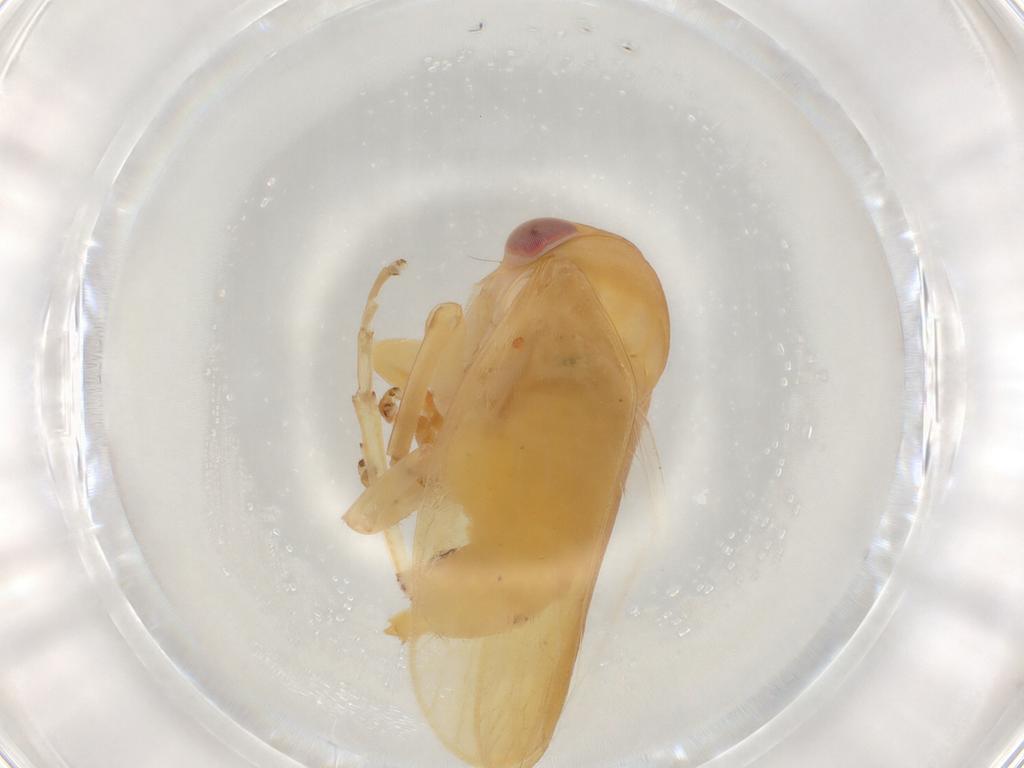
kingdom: Animalia
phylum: Arthropoda
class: Insecta
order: Hemiptera
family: Cicadellidae
